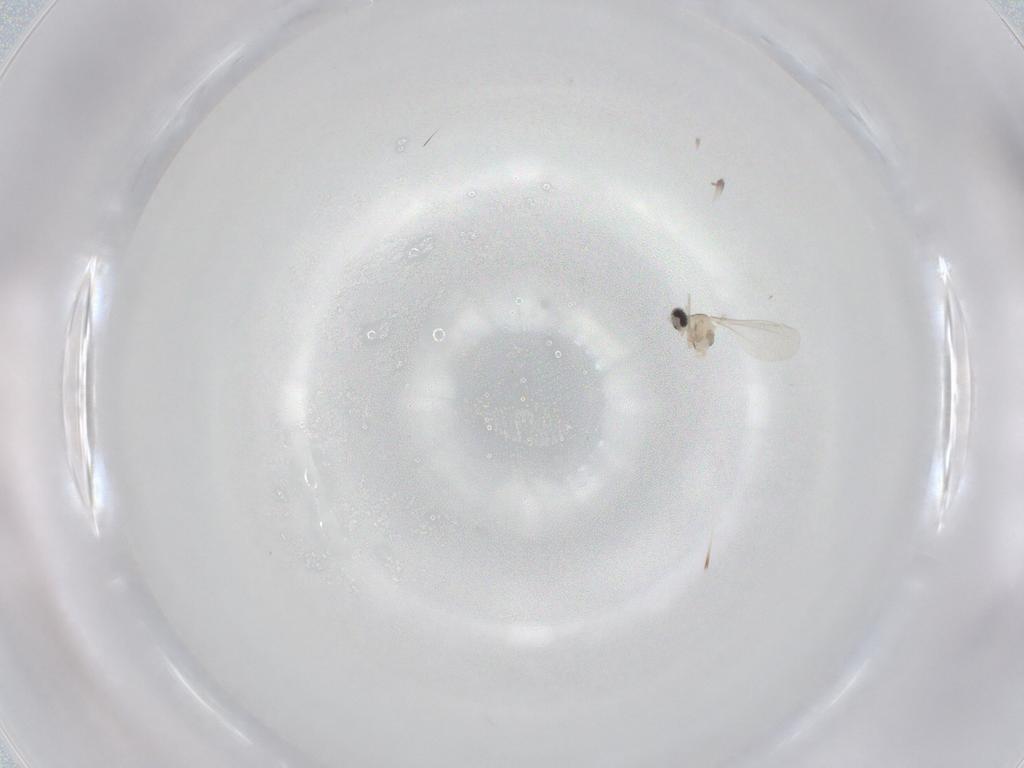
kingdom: Animalia
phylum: Arthropoda
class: Insecta
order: Diptera
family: Cecidomyiidae
